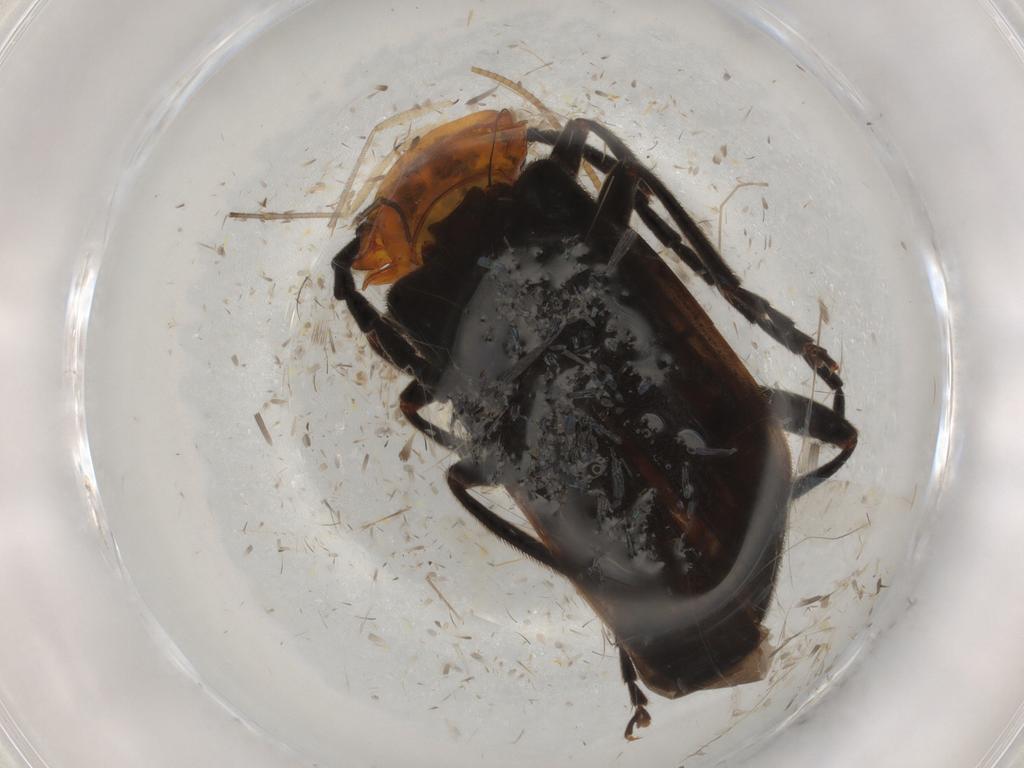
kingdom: Animalia
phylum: Arthropoda
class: Insecta
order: Coleoptera
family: Cantharidae
